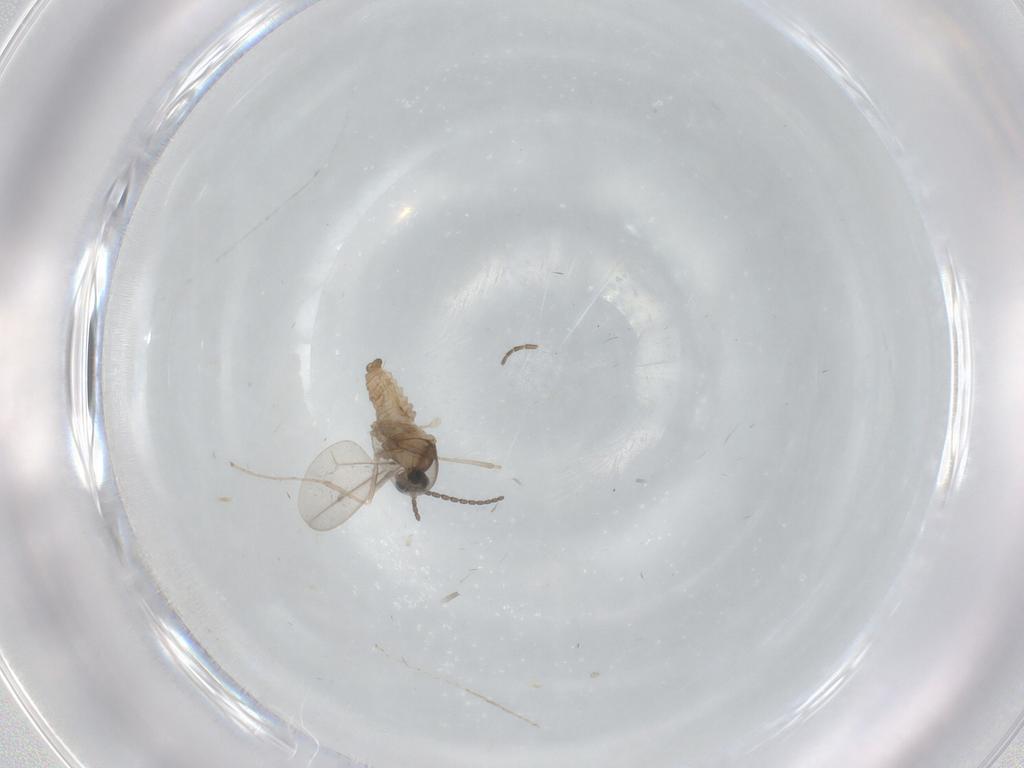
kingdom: Animalia
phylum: Arthropoda
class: Insecta
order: Diptera
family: Cecidomyiidae
